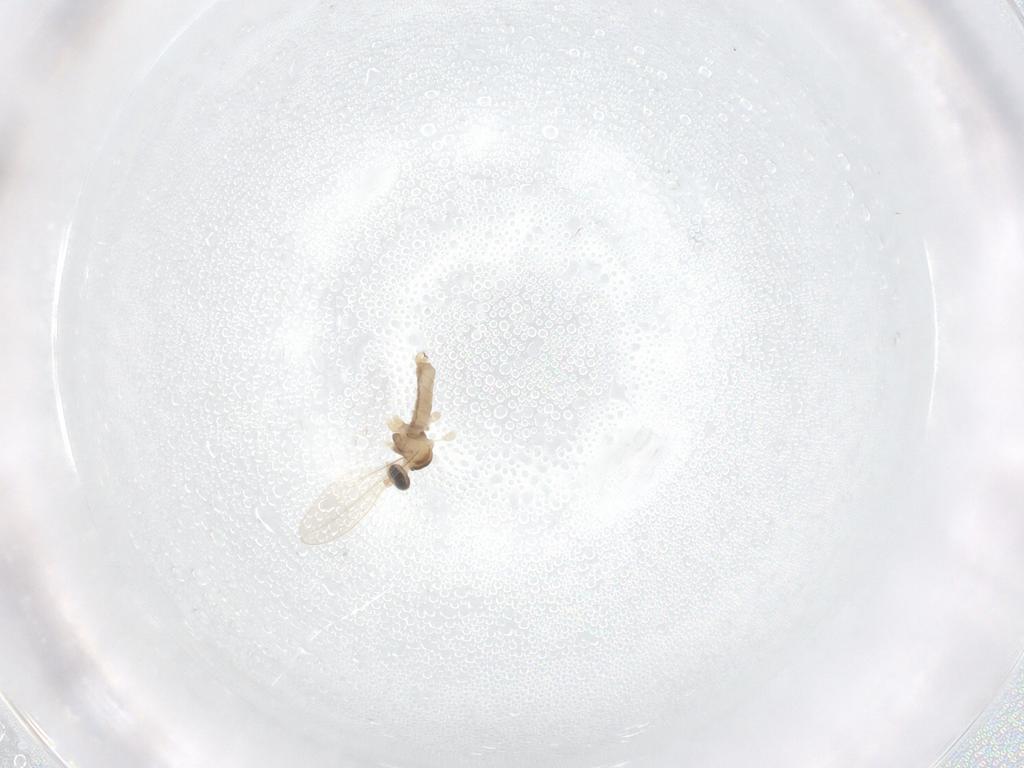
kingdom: Animalia
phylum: Arthropoda
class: Insecta
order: Diptera
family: Cecidomyiidae
